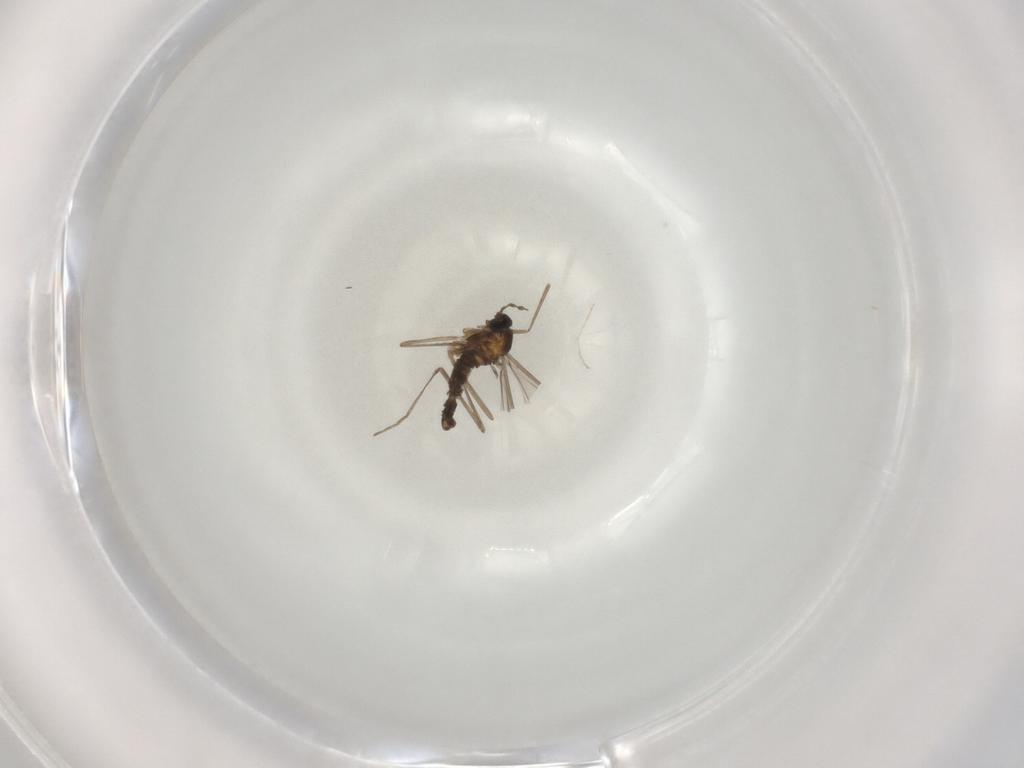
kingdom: Animalia
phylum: Arthropoda
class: Insecta
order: Diptera
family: Cecidomyiidae
